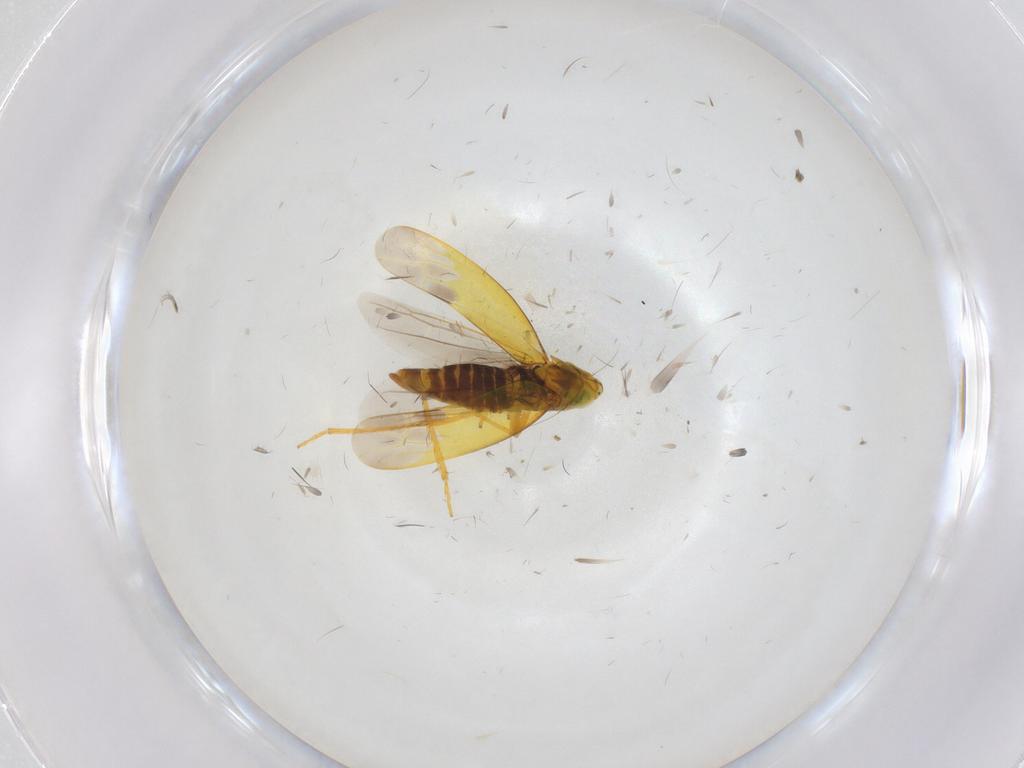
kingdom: Animalia
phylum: Arthropoda
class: Insecta
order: Hemiptera
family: Cicadellidae
